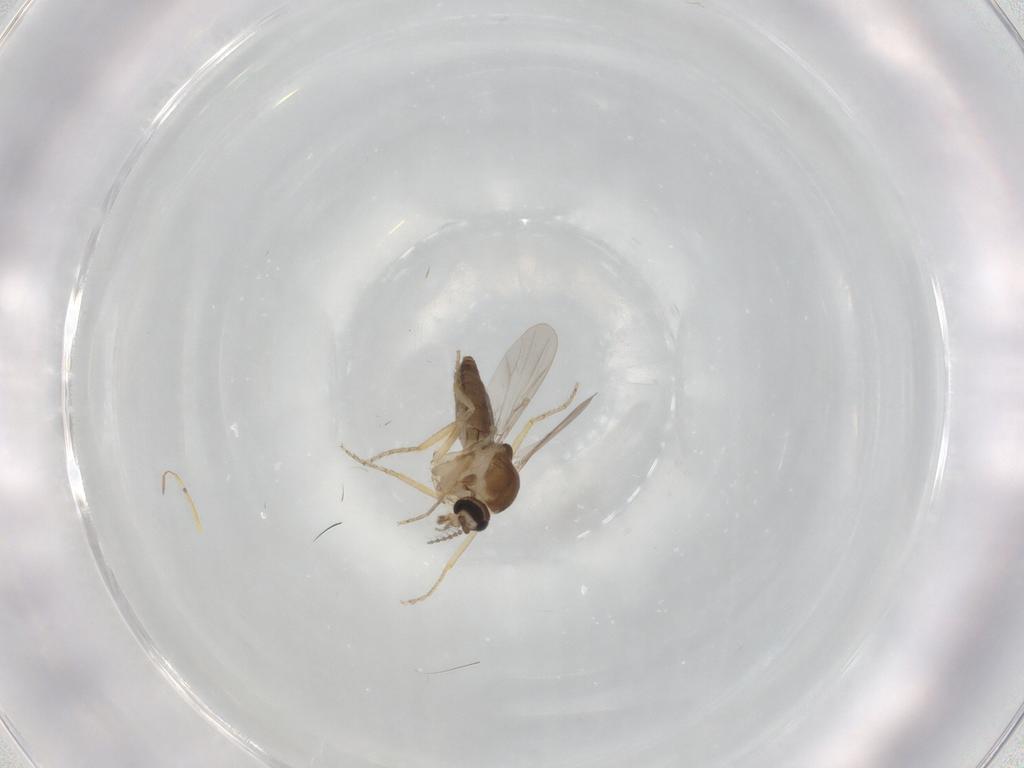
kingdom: Animalia
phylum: Arthropoda
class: Insecta
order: Diptera
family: Ceratopogonidae
